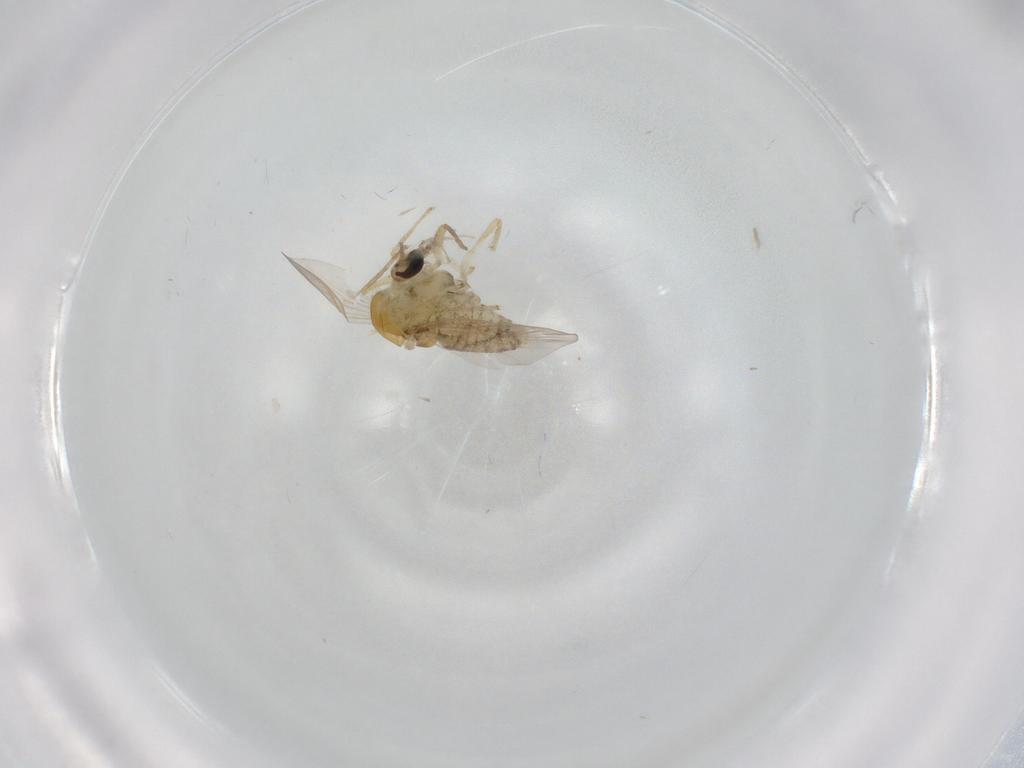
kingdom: Animalia
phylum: Arthropoda
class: Insecta
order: Diptera
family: Chironomidae
